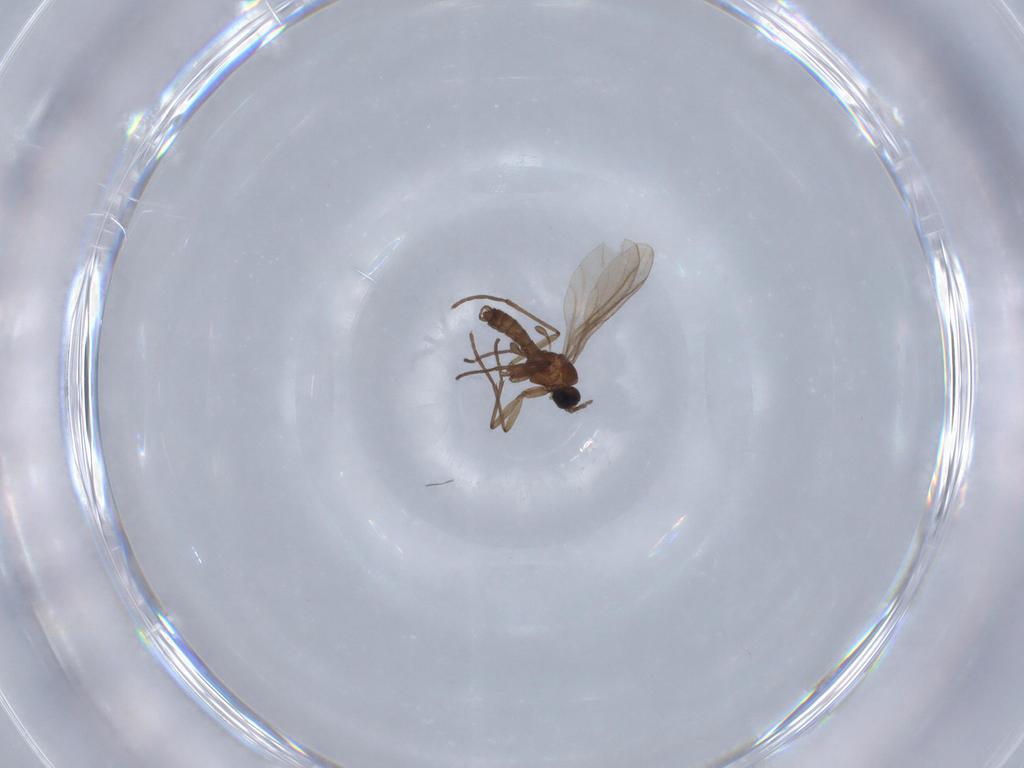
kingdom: Animalia
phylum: Arthropoda
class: Insecta
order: Diptera
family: Sciaridae
